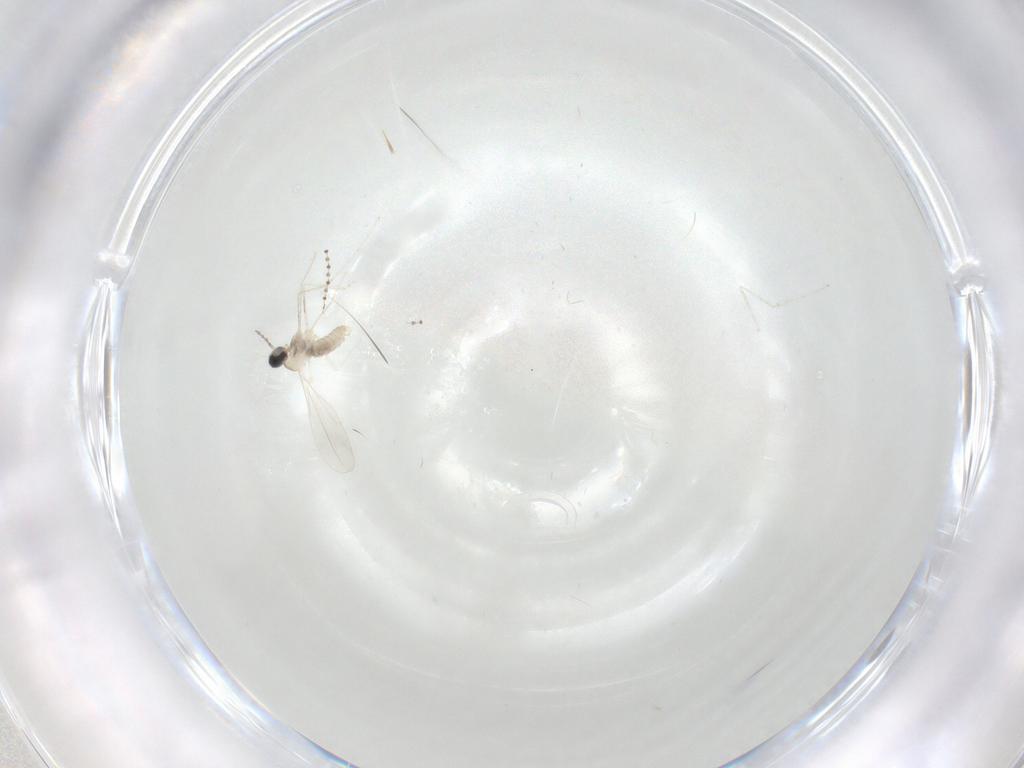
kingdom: Animalia
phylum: Arthropoda
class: Insecta
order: Diptera
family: Cecidomyiidae
